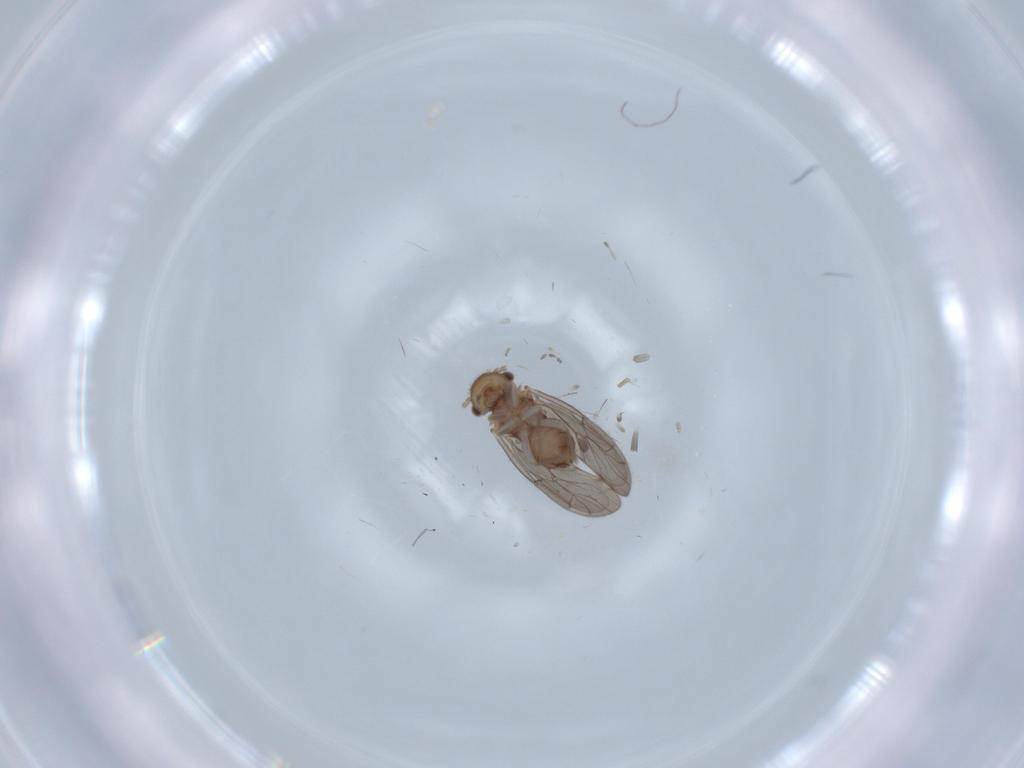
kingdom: Animalia
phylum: Arthropoda
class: Insecta
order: Psocodea
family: Ectopsocidae
